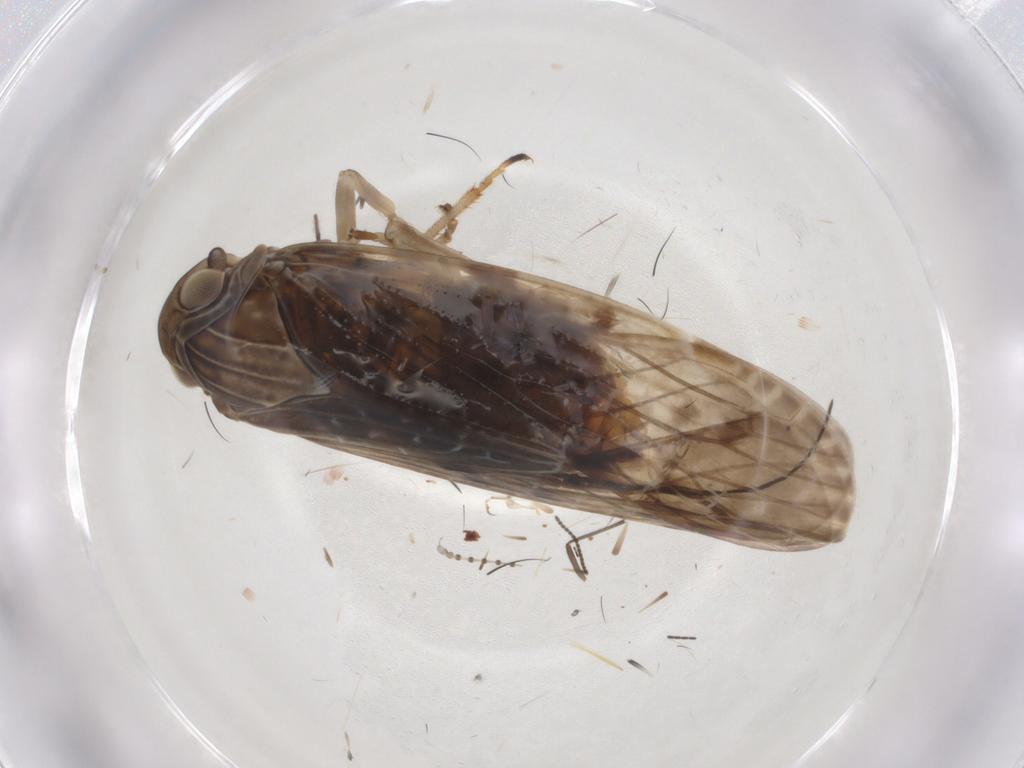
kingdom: Animalia
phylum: Arthropoda
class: Insecta
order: Hemiptera
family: Achilidae
